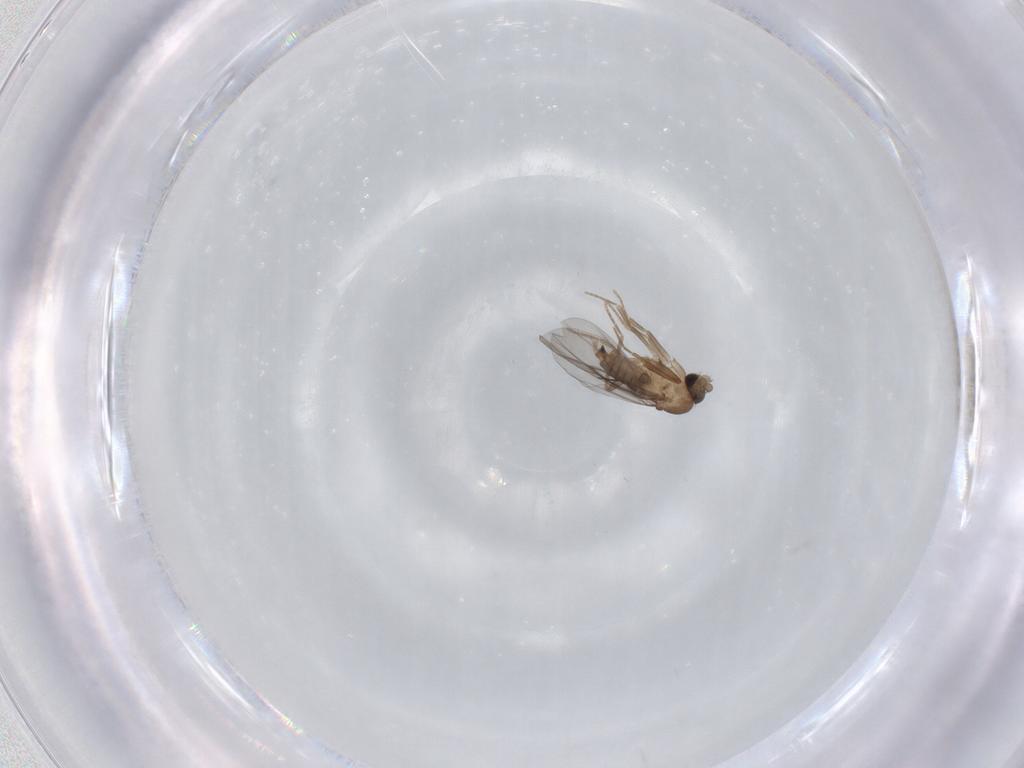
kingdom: Animalia
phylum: Arthropoda
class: Insecta
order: Diptera
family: Phoridae
